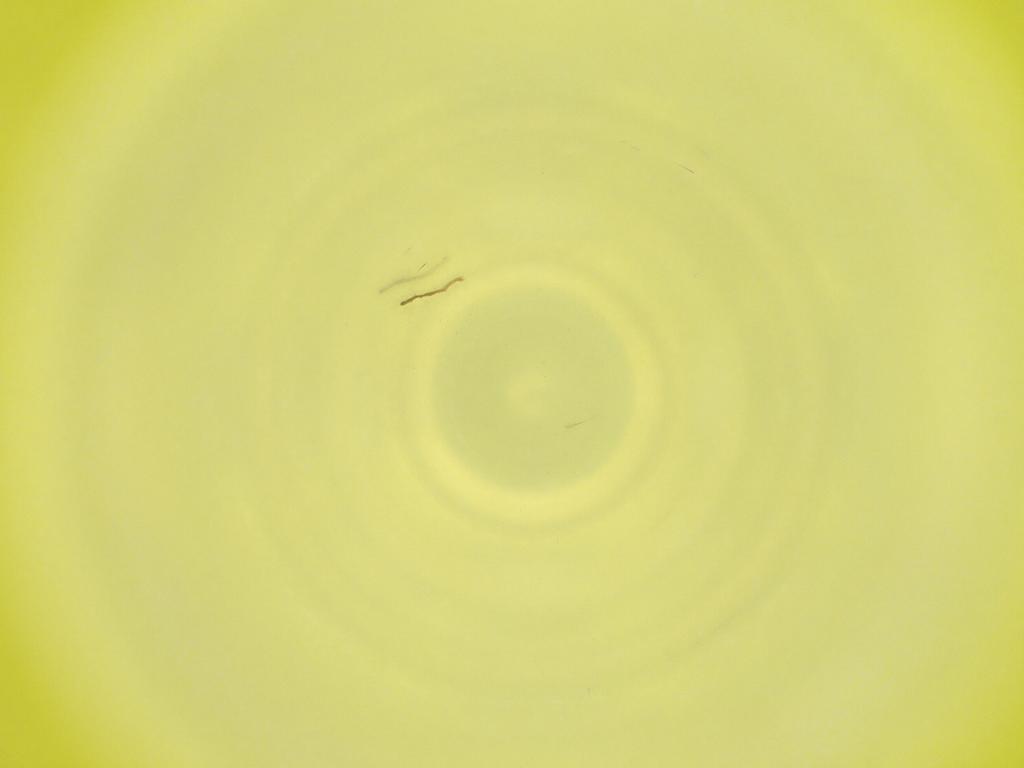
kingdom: Animalia
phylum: Arthropoda
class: Insecta
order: Diptera
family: Cecidomyiidae
